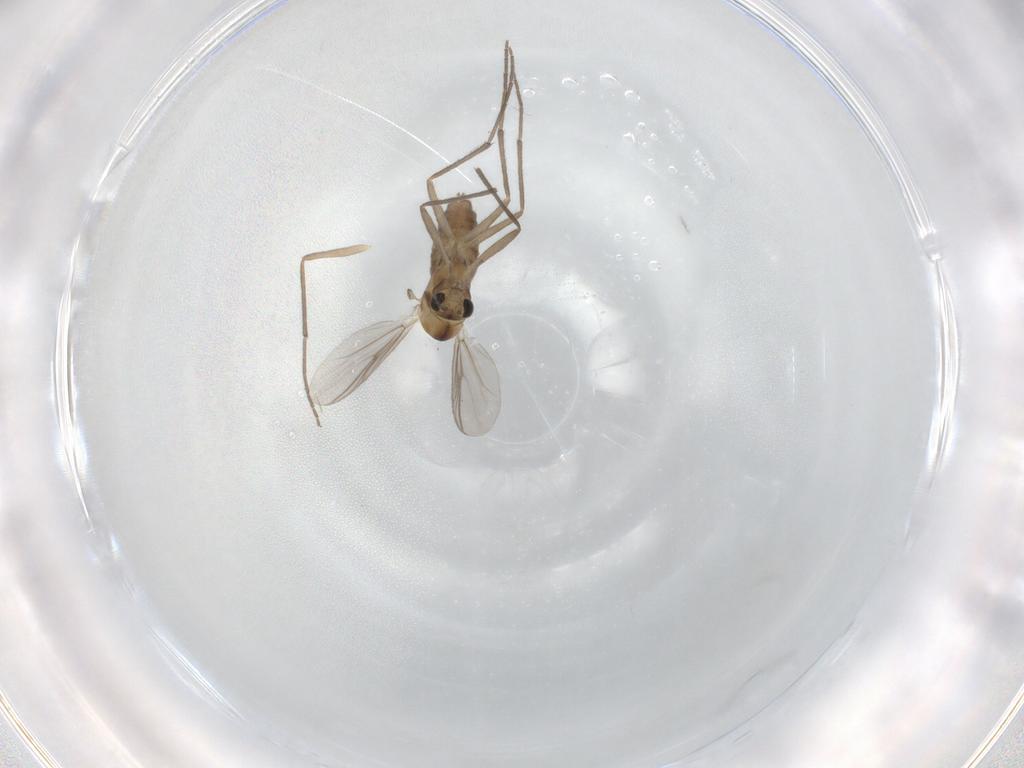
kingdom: Animalia
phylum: Arthropoda
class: Insecta
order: Diptera
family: Chironomidae
